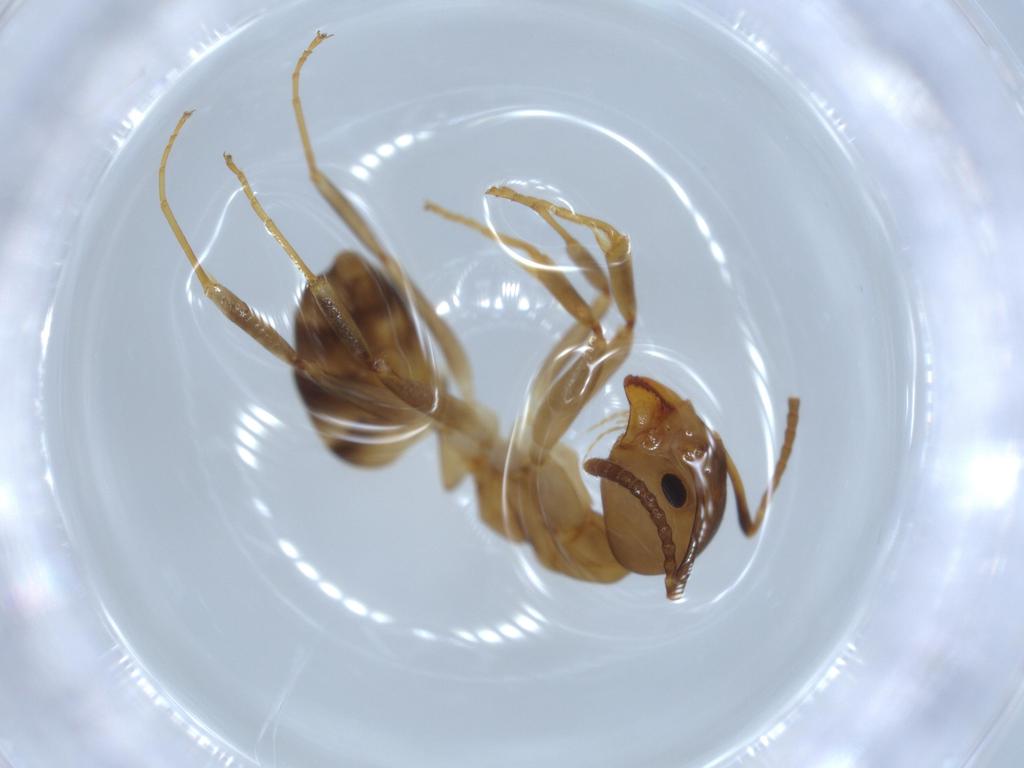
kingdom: Animalia
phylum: Arthropoda
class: Insecta
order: Hymenoptera
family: Formicidae
